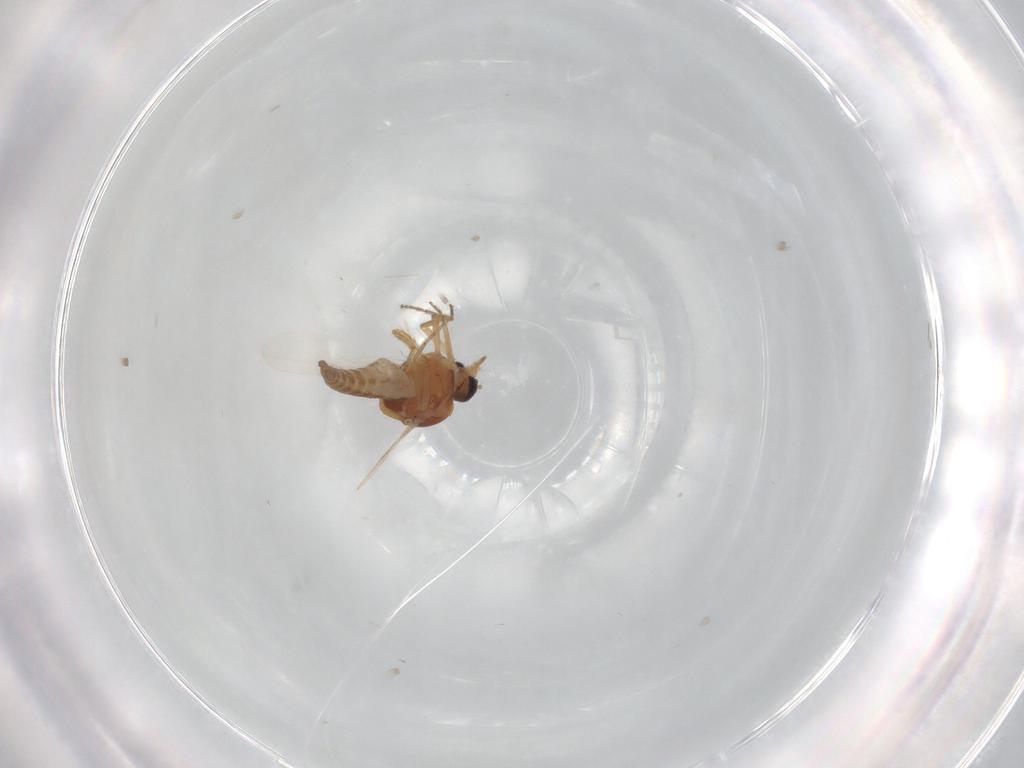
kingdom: Animalia
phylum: Arthropoda
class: Insecta
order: Diptera
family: Ceratopogonidae
